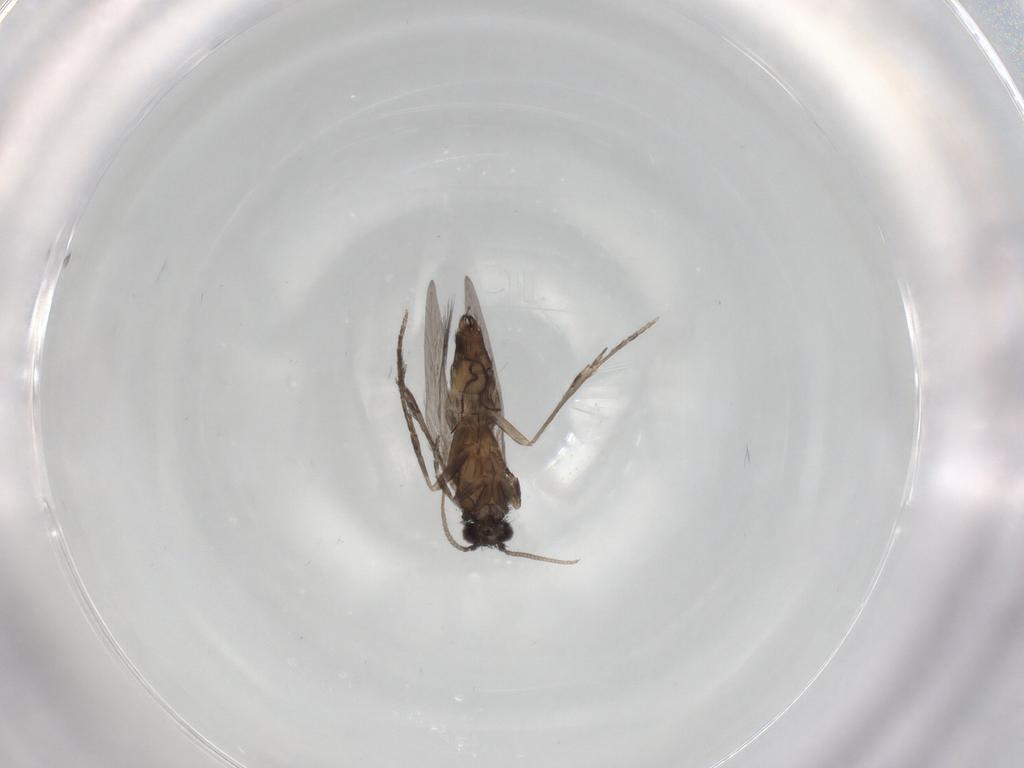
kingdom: Animalia
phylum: Arthropoda
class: Insecta
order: Trichoptera
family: Hydroptilidae
